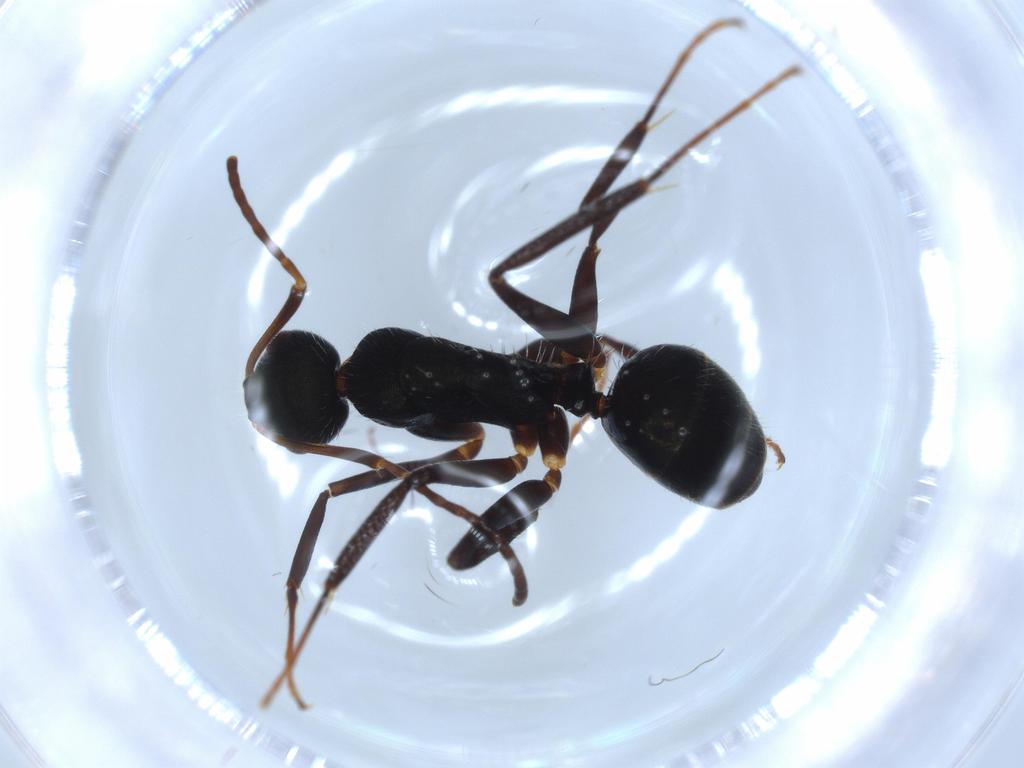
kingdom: Animalia
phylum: Arthropoda
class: Insecta
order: Hymenoptera
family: Formicidae
